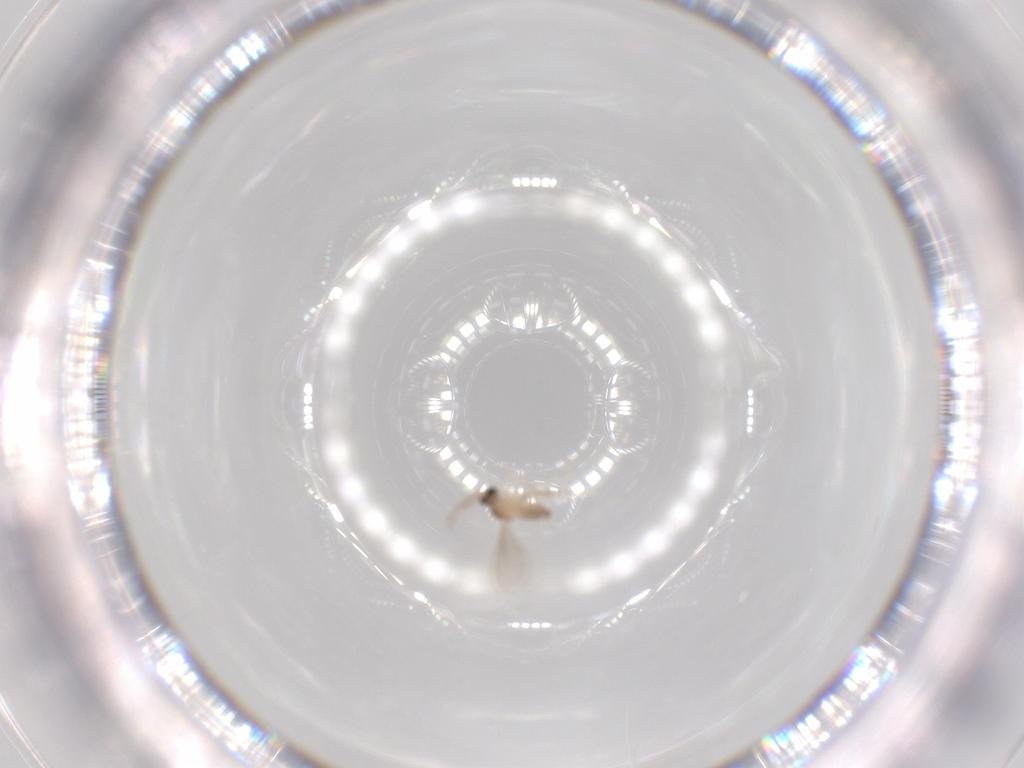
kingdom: Animalia
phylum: Arthropoda
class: Insecta
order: Diptera
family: Cecidomyiidae
